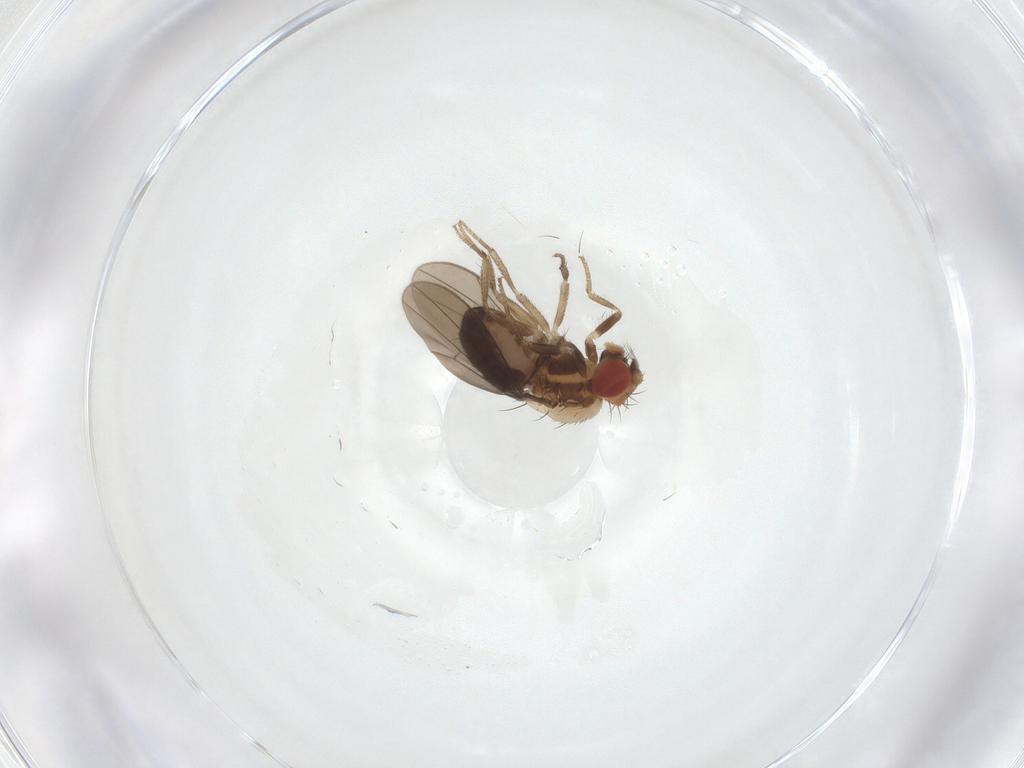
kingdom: Animalia
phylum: Arthropoda
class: Insecta
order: Diptera
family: Drosophilidae
